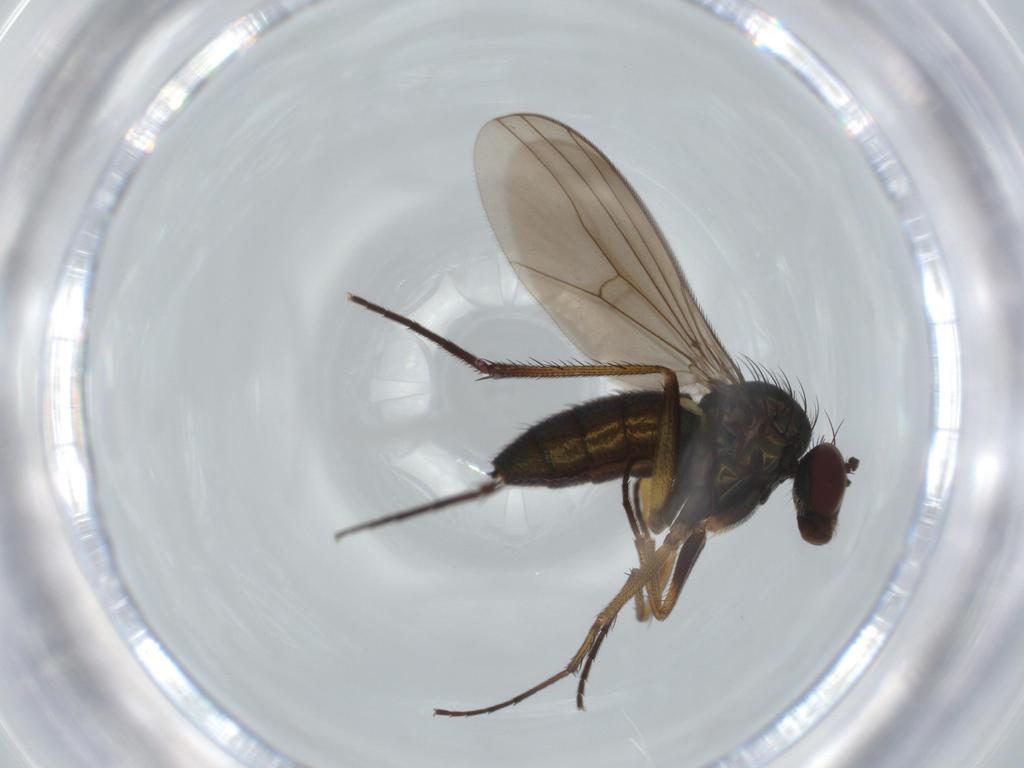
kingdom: Animalia
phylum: Arthropoda
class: Insecta
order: Diptera
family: Dolichopodidae
